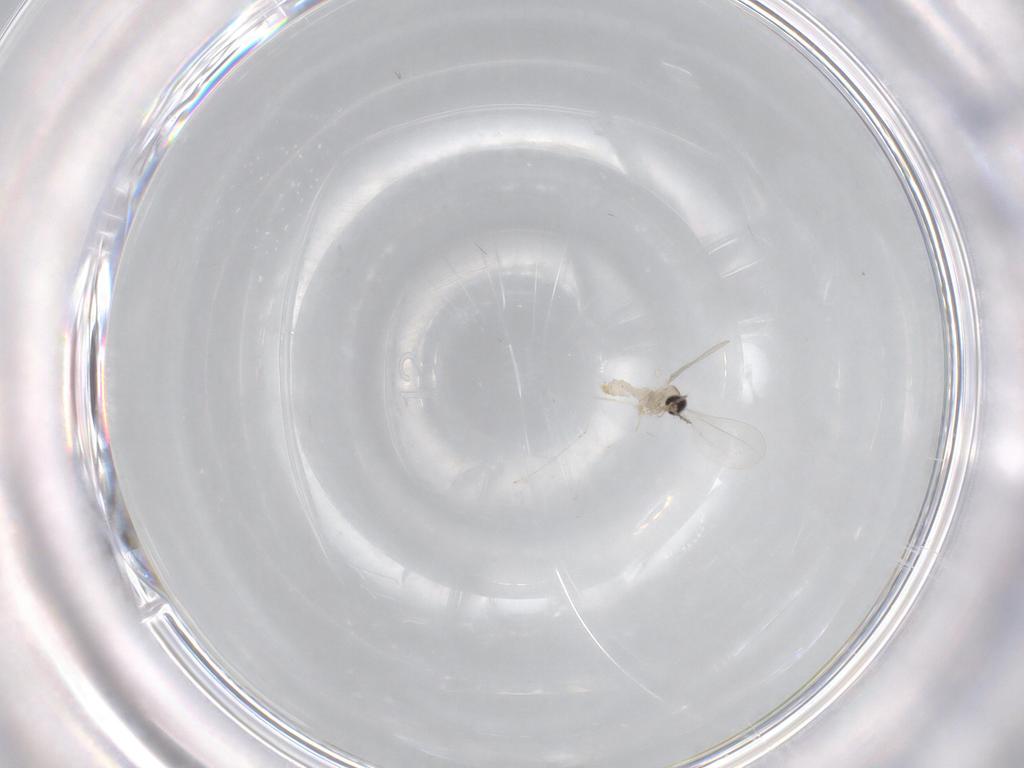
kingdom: Animalia
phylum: Arthropoda
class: Insecta
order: Diptera
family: Cecidomyiidae
